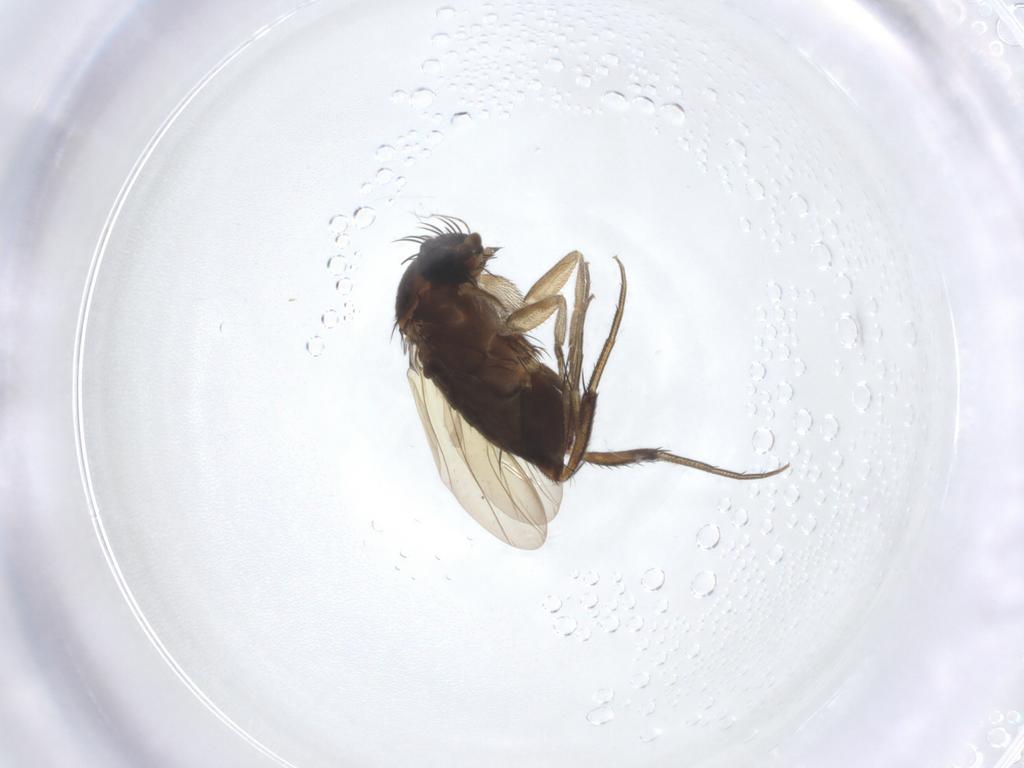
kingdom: Animalia
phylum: Arthropoda
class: Insecta
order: Diptera
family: Phoridae
